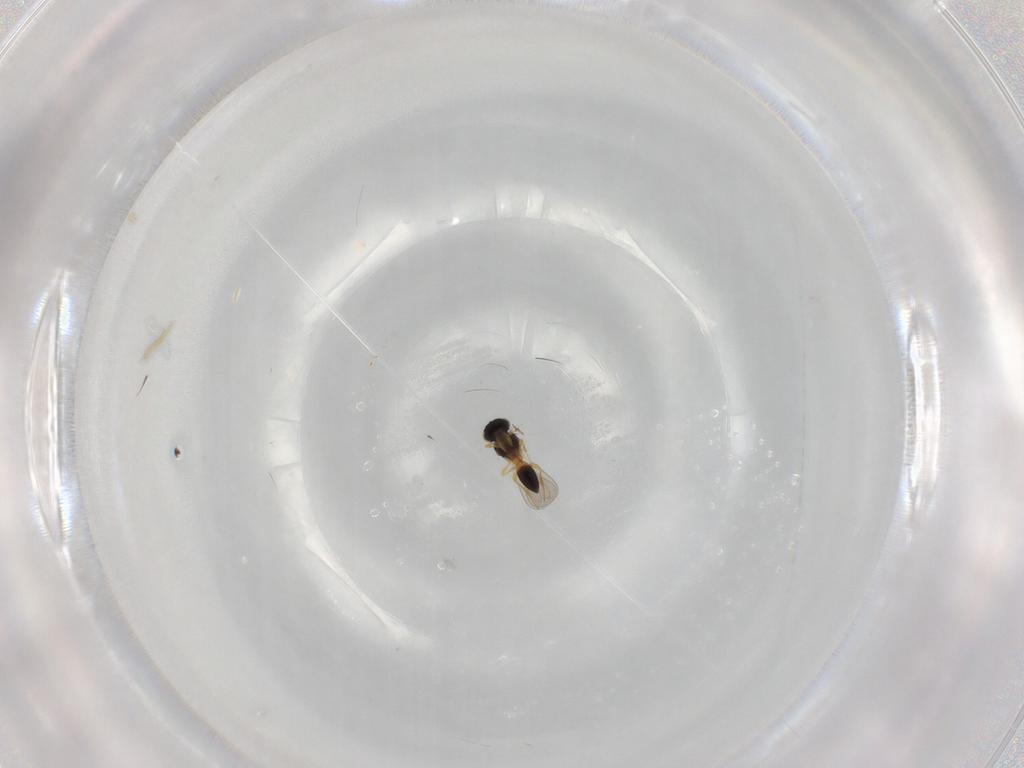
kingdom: Animalia
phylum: Arthropoda
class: Insecta
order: Hymenoptera
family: Platygastridae
